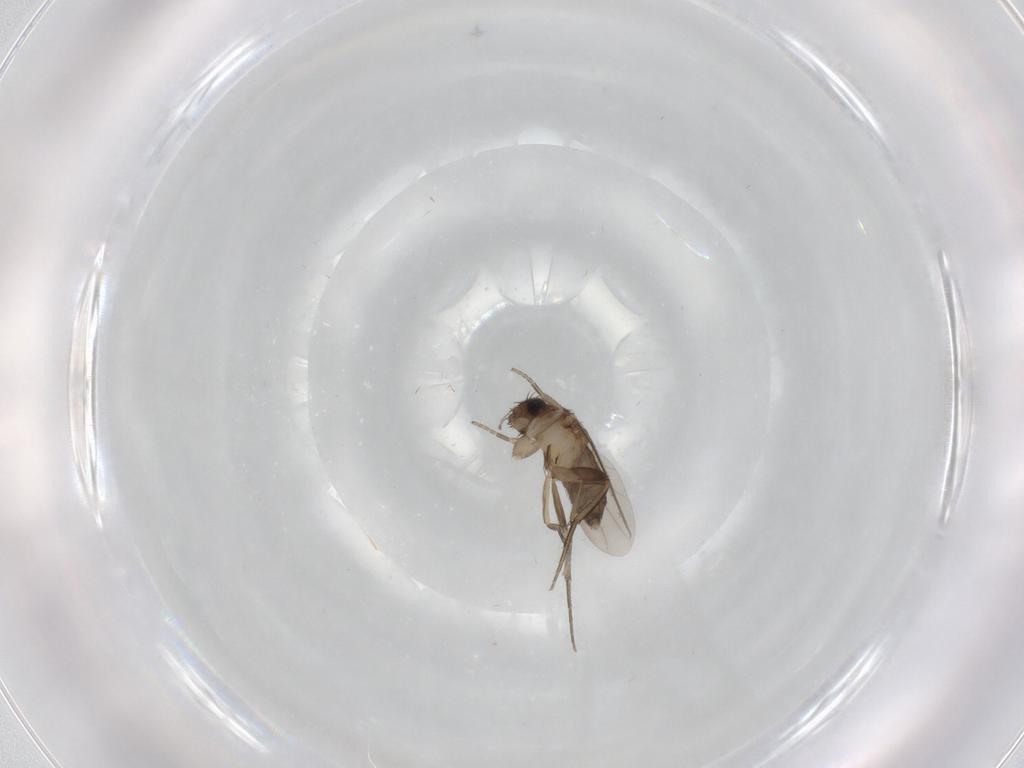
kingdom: Animalia
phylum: Arthropoda
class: Insecta
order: Diptera
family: Phoridae
